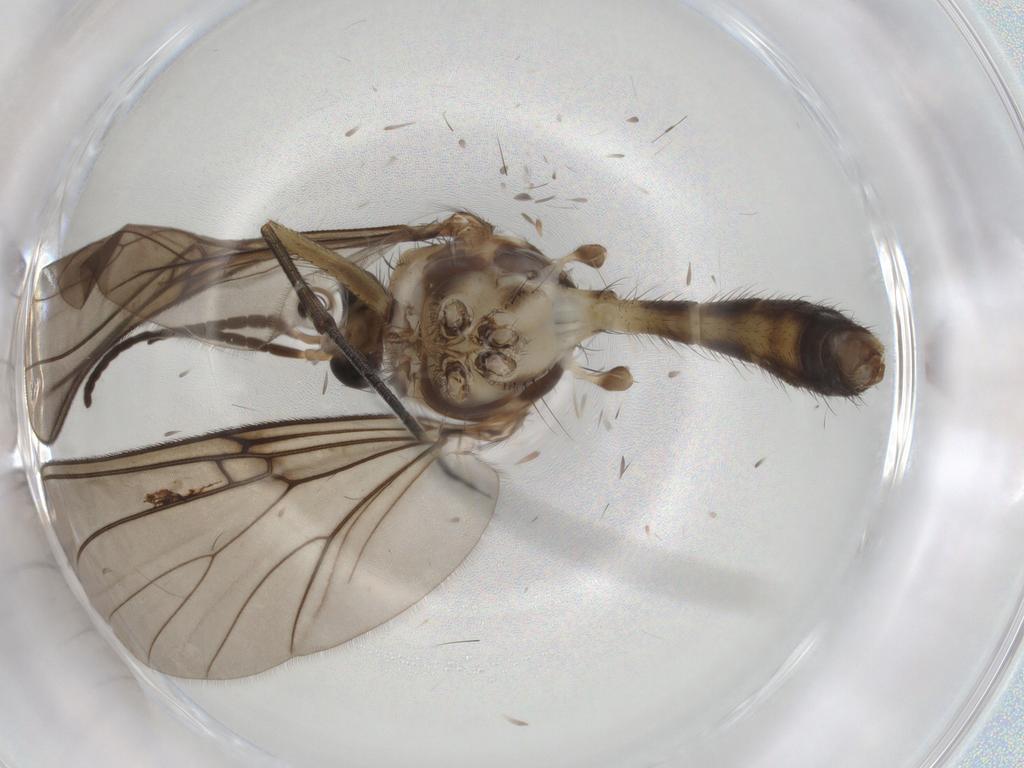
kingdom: Animalia
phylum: Arthropoda
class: Insecta
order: Diptera
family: Mycetophilidae
